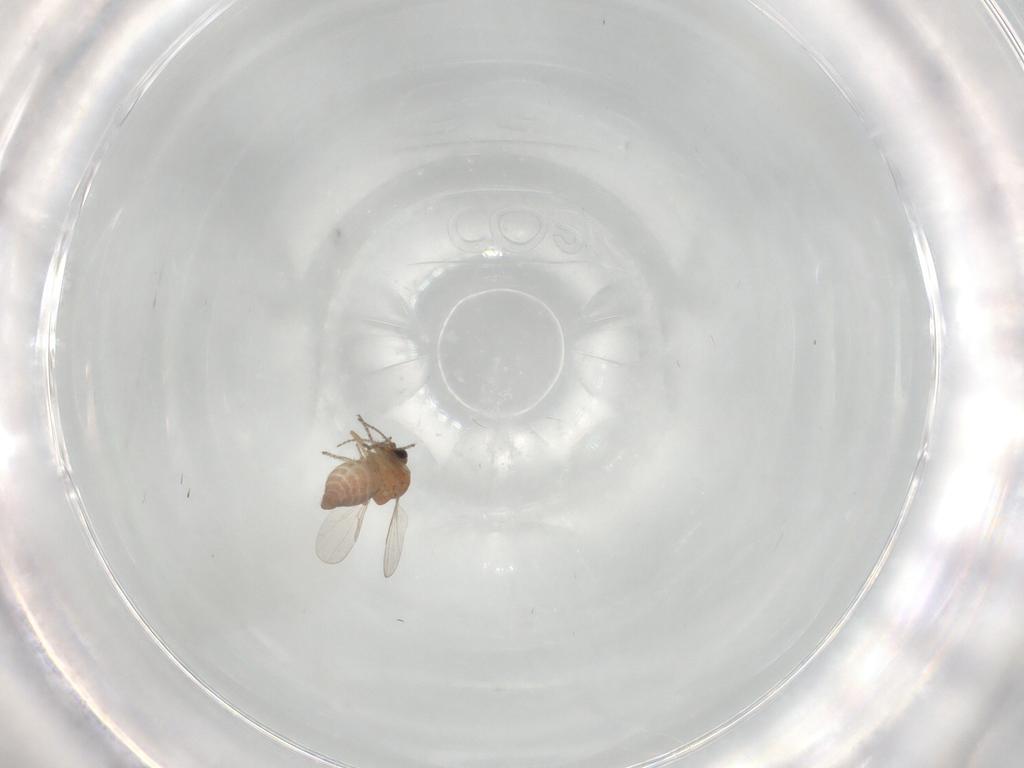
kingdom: Animalia
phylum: Arthropoda
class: Insecta
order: Diptera
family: Ceratopogonidae
